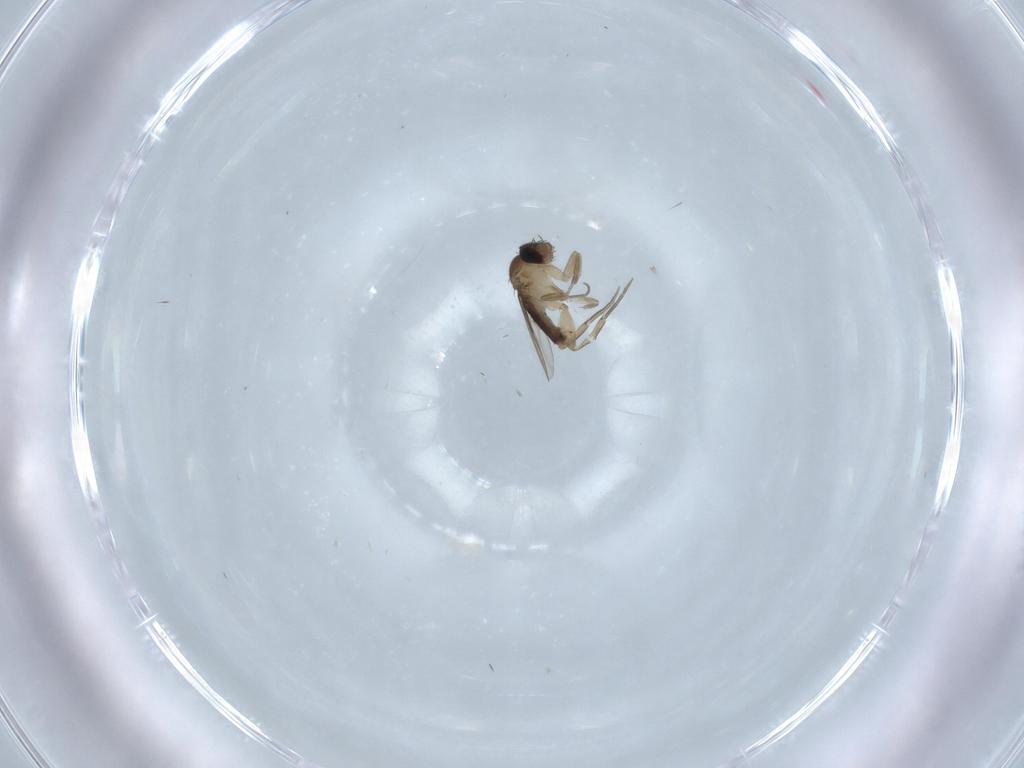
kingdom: Animalia
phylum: Arthropoda
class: Insecta
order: Diptera
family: Phoridae
